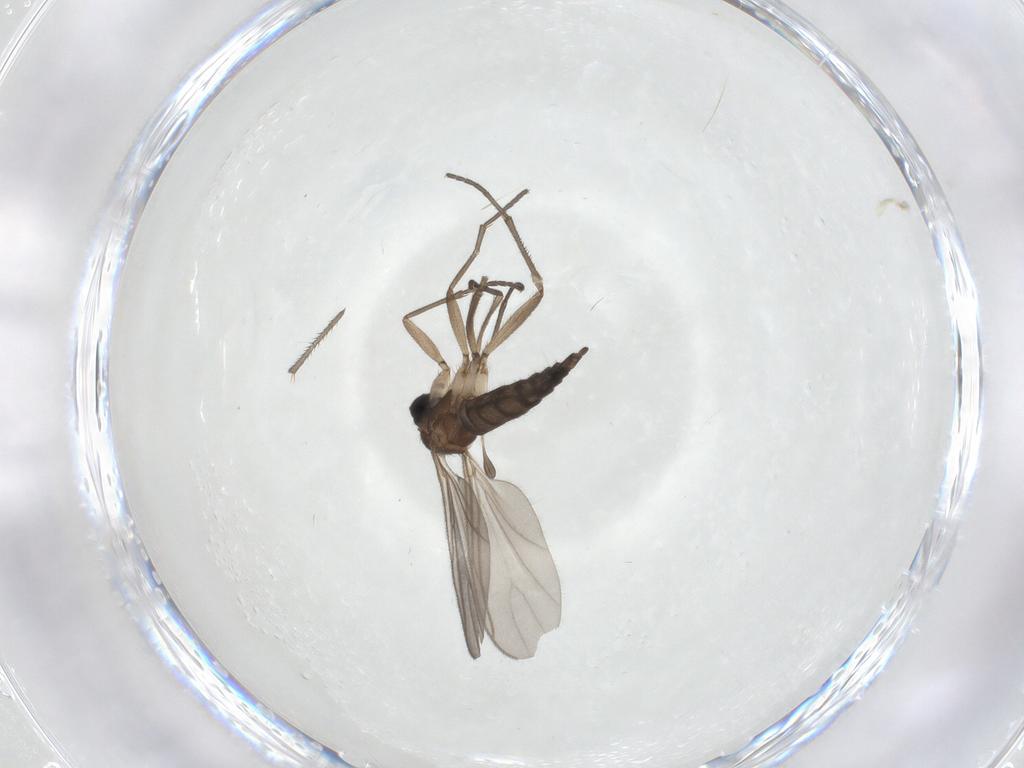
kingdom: Animalia
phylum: Arthropoda
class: Insecta
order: Diptera
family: Sciaridae
